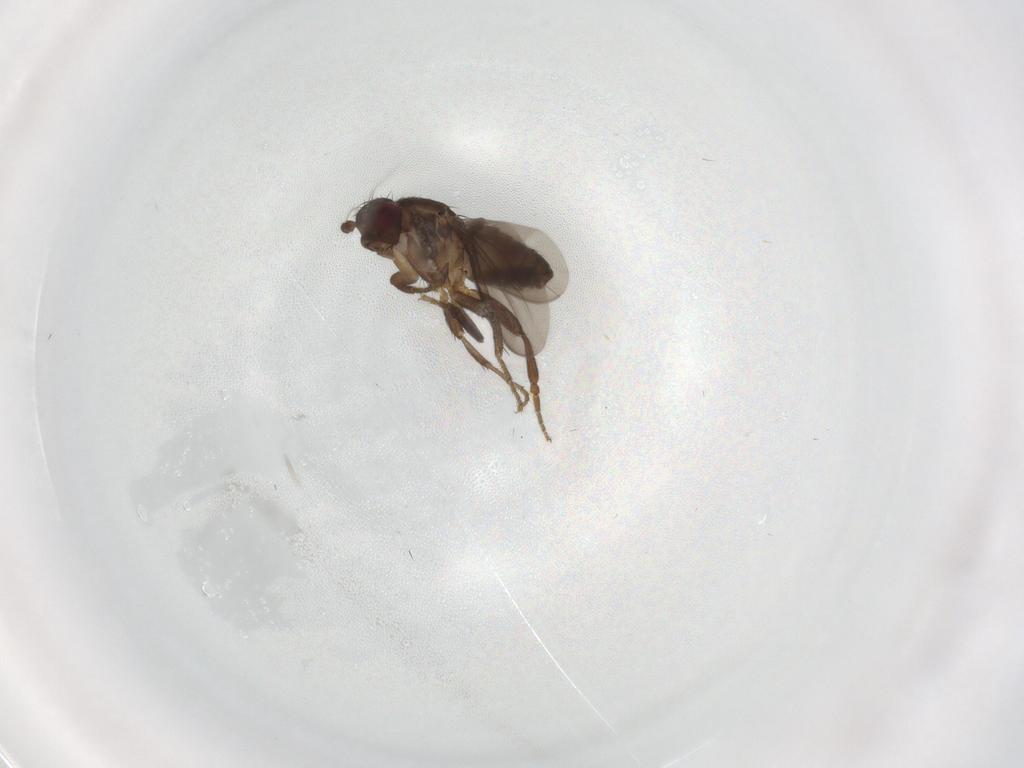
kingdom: Animalia
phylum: Arthropoda
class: Insecta
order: Diptera
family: Sphaeroceridae
